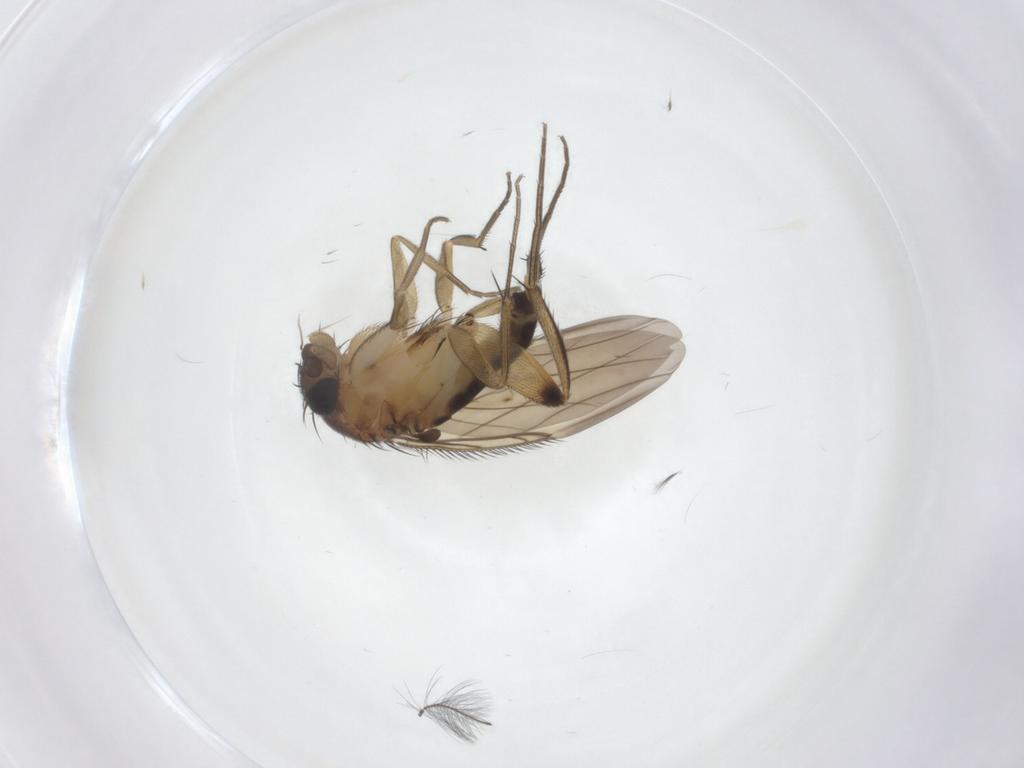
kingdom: Animalia
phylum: Arthropoda
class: Insecta
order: Diptera
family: Phoridae
